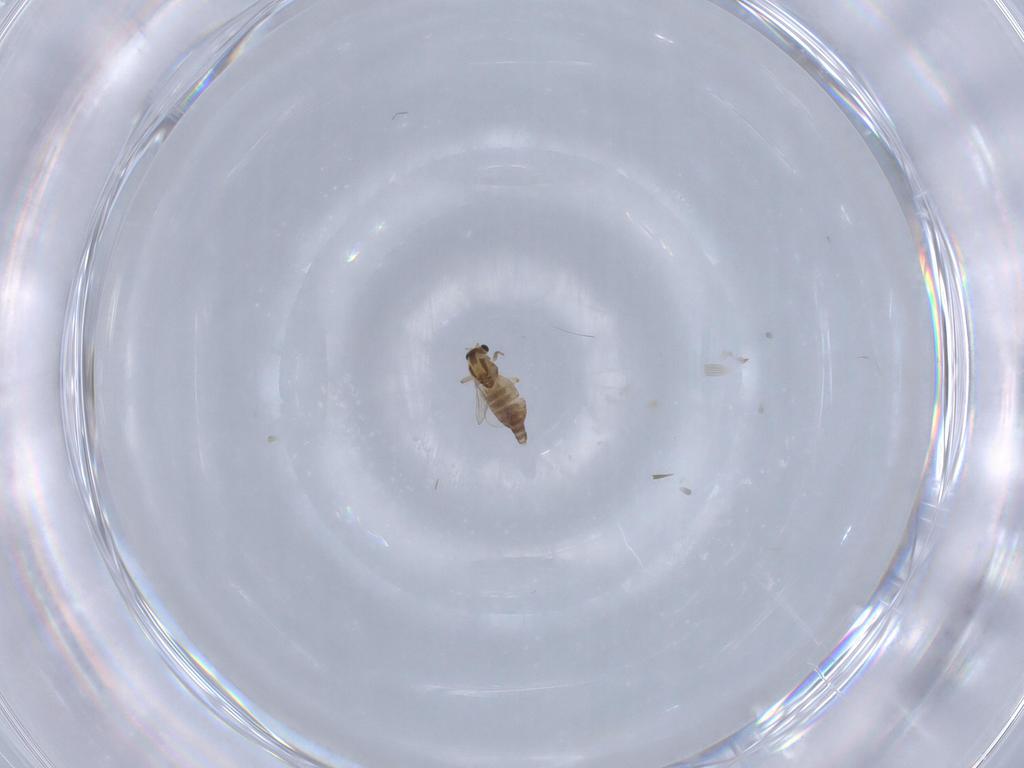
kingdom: Animalia
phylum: Arthropoda
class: Insecta
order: Diptera
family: Chironomidae
